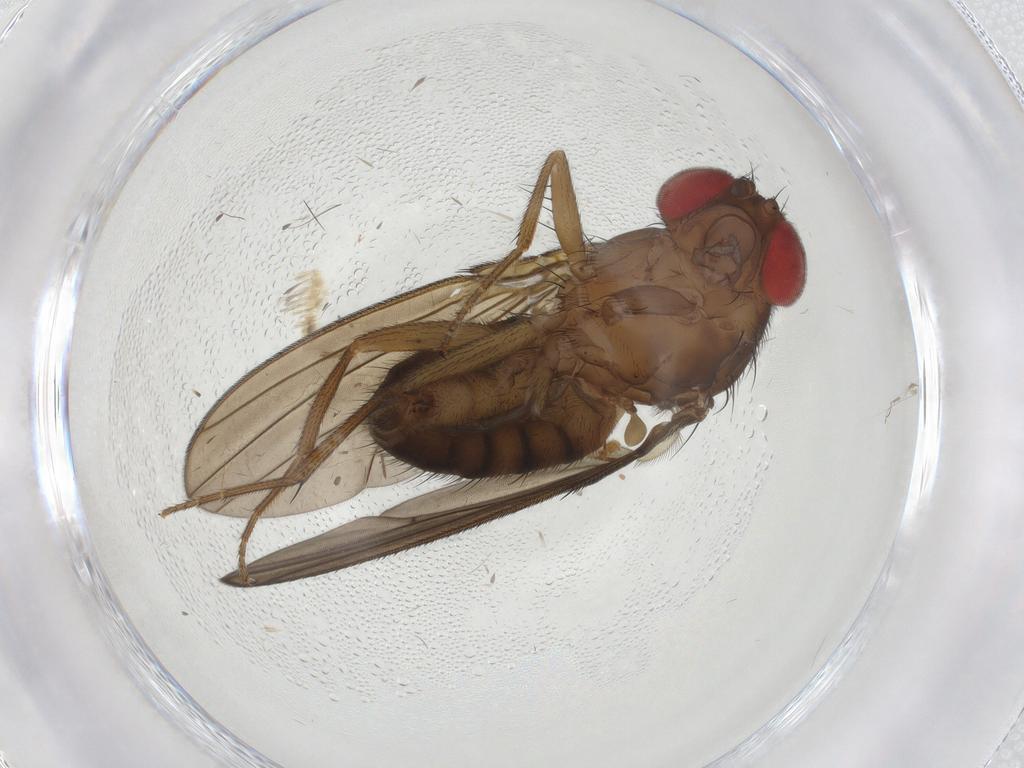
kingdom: Animalia
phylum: Arthropoda
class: Insecta
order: Diptera
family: Drosophilidae
